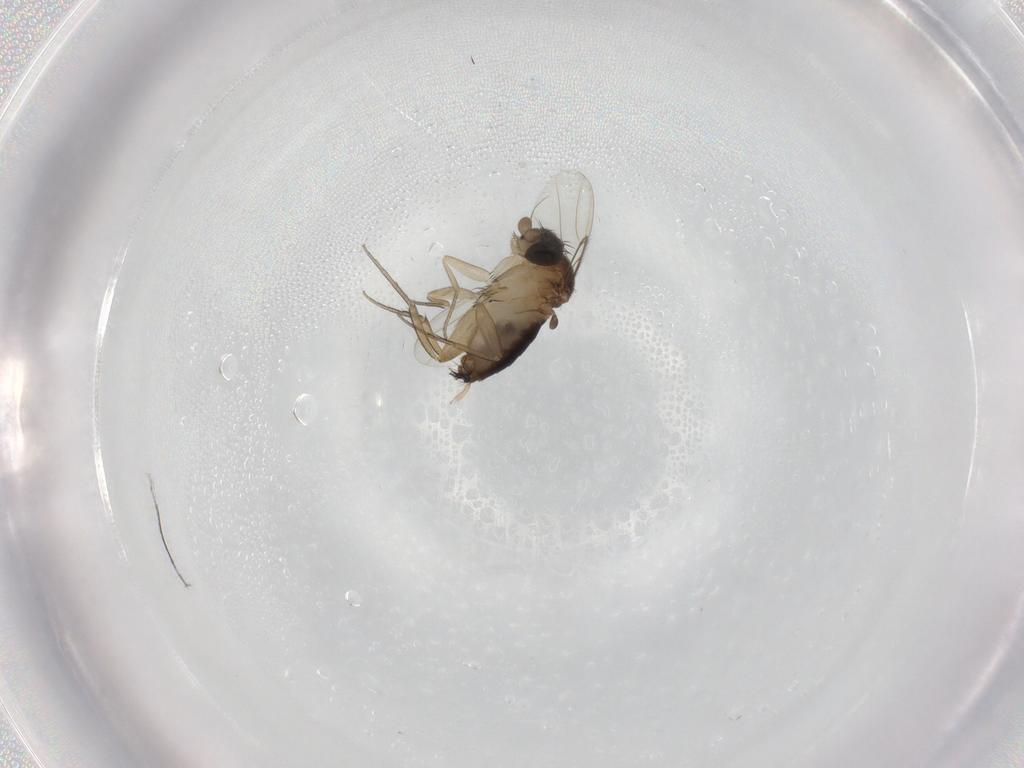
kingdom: Animalia
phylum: Arthropoda
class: Insecta
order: Diptera
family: Phoridae
